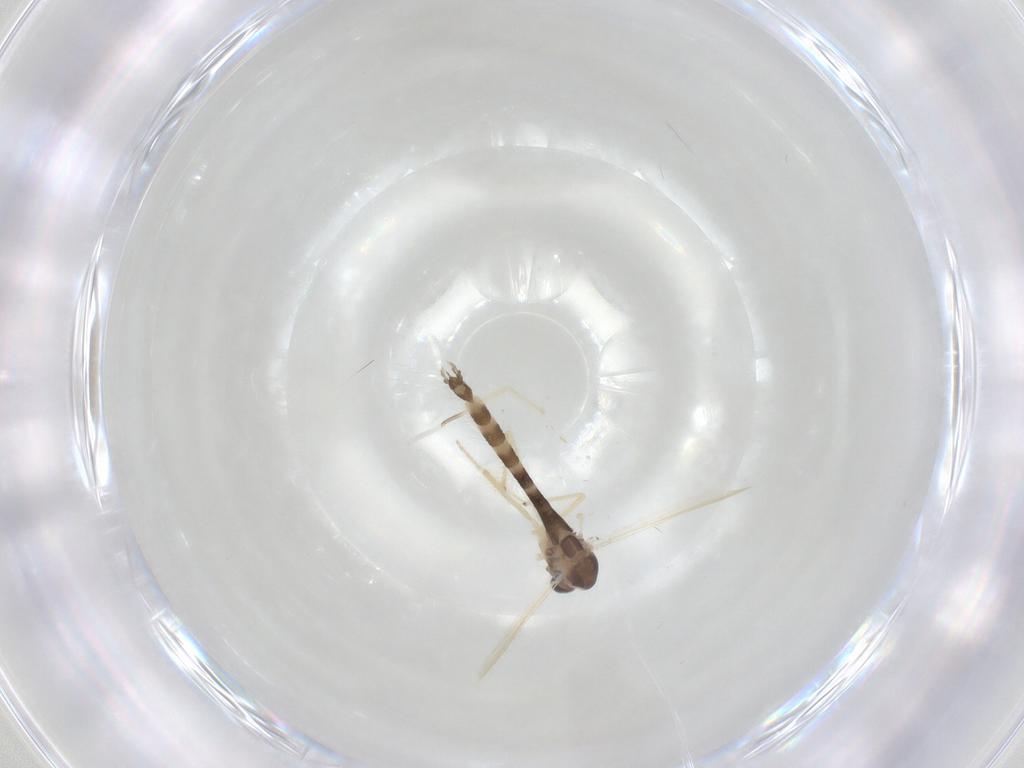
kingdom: Animalia
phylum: Arthropoda
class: Insecta
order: Diptera
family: Chironomidae
